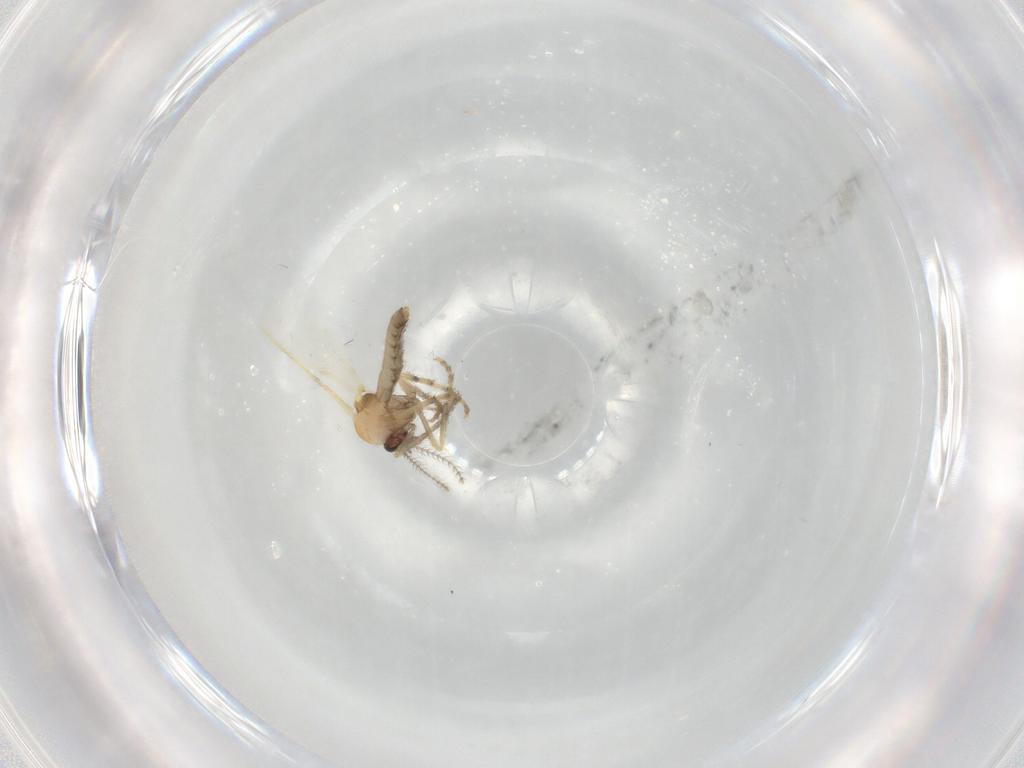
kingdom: Animalia
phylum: Arthropoda
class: Insecta
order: Diptera
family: Ceratopogonidae
